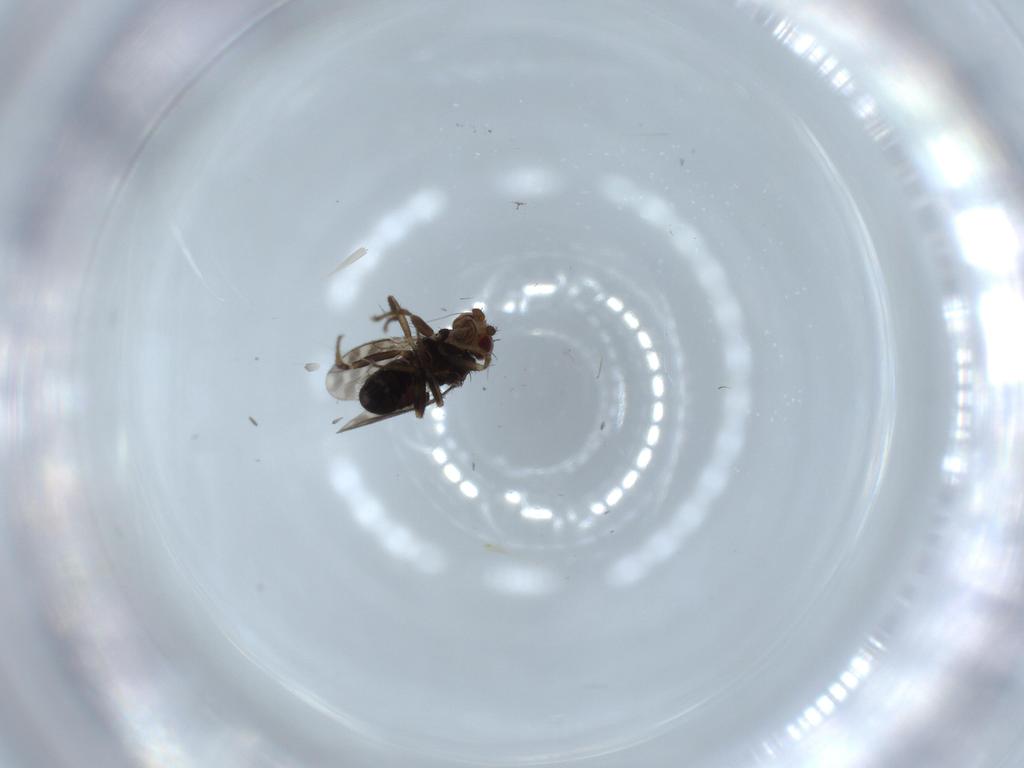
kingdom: Animalia
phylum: Arthropoda
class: Insecta
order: Diptera
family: Sphaeroceridae
